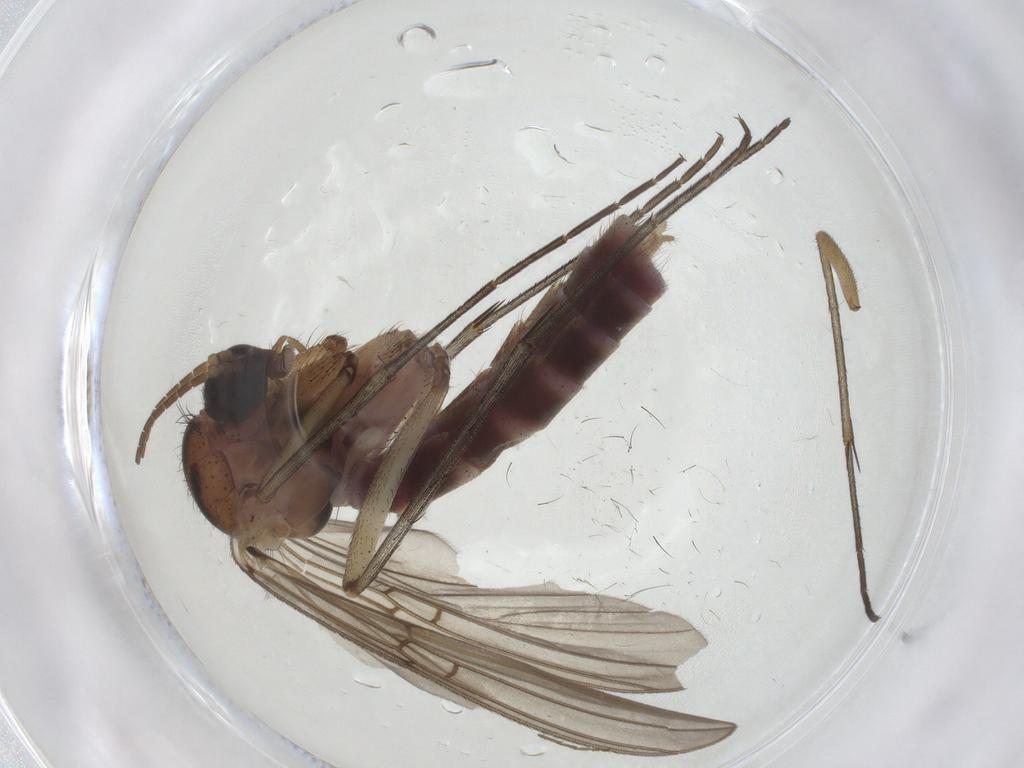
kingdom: Animalia
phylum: Arthropoda
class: Insecta
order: Diptera
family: Mycetophilidae
